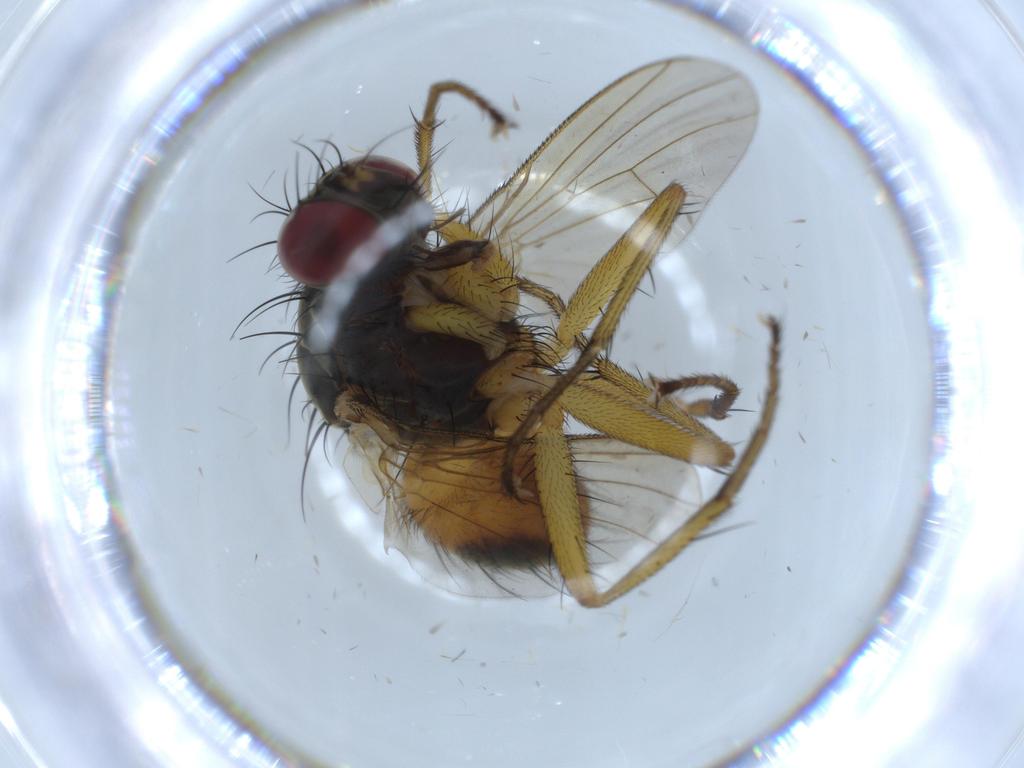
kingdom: Animalia
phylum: Arthropoda
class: Insecta
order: Diptera
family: Muscidae
